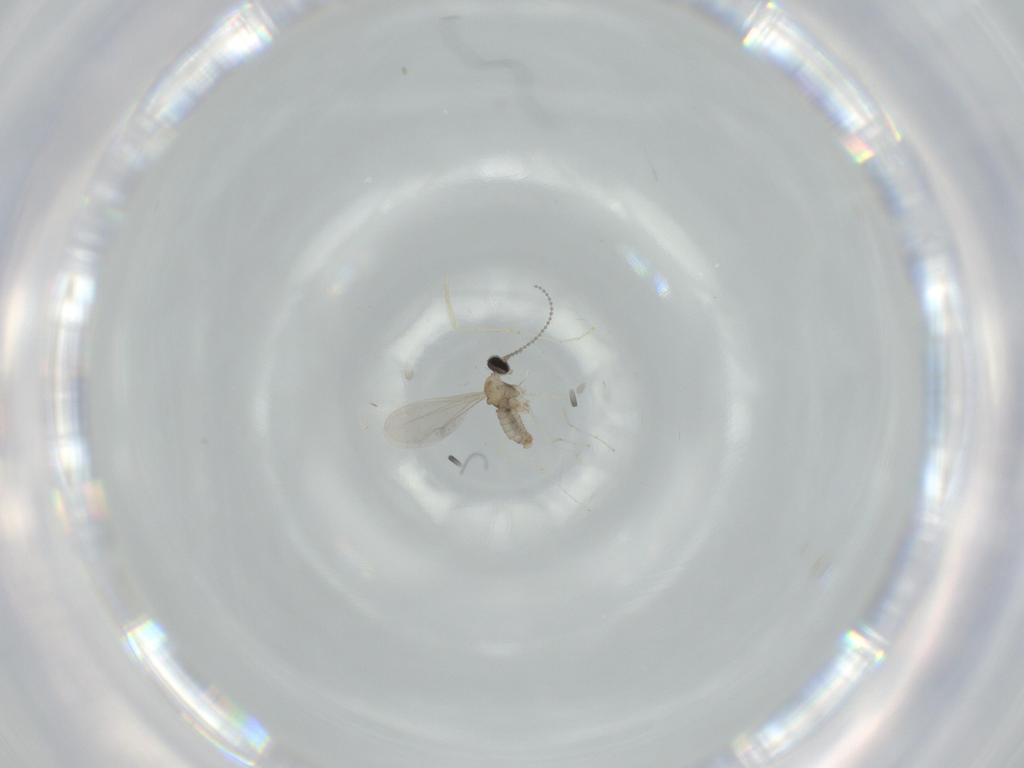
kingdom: Animalia
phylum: Arthropoda
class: Insecta
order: Diptera
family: Cecidomyiidae
